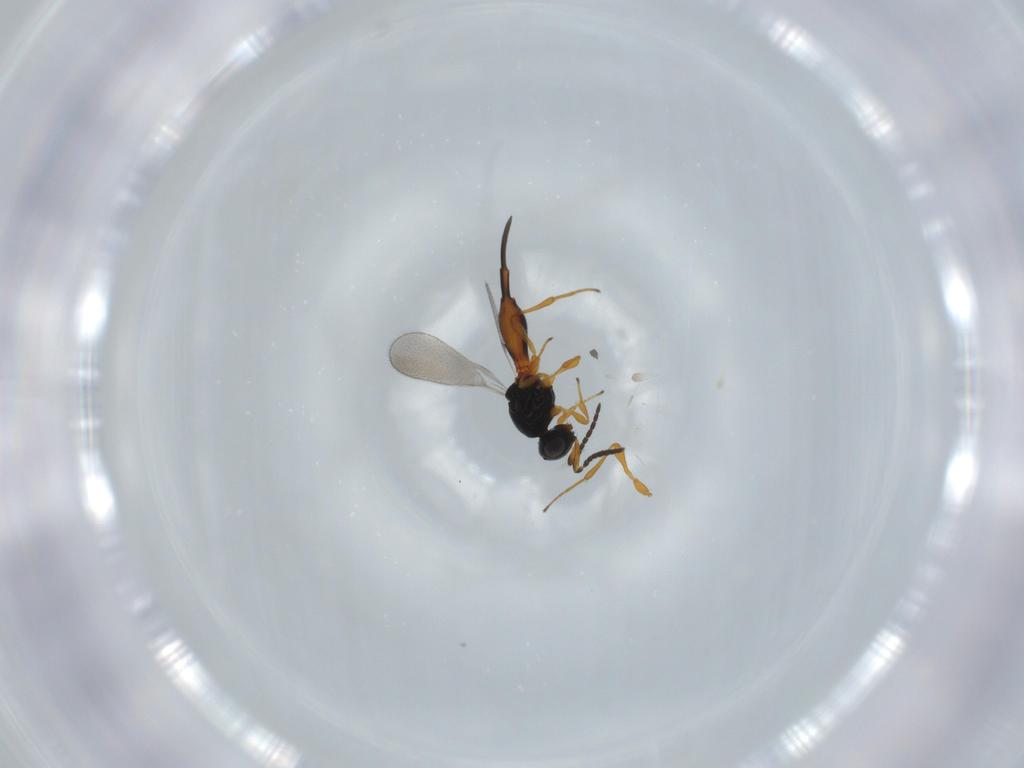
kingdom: Animalia
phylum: Arthropoda
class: Insecta
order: Hymenoptera
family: Platygastridae
